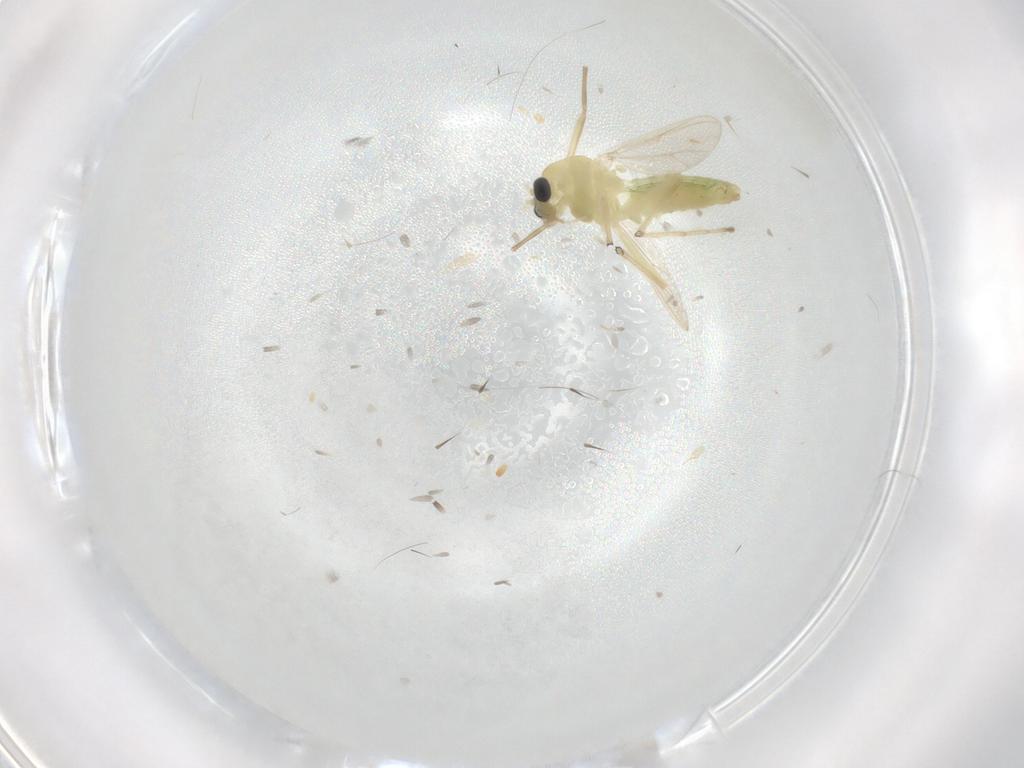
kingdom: Animalia
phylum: Arthropoda
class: Insecta
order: Diptera
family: Chironomidae
